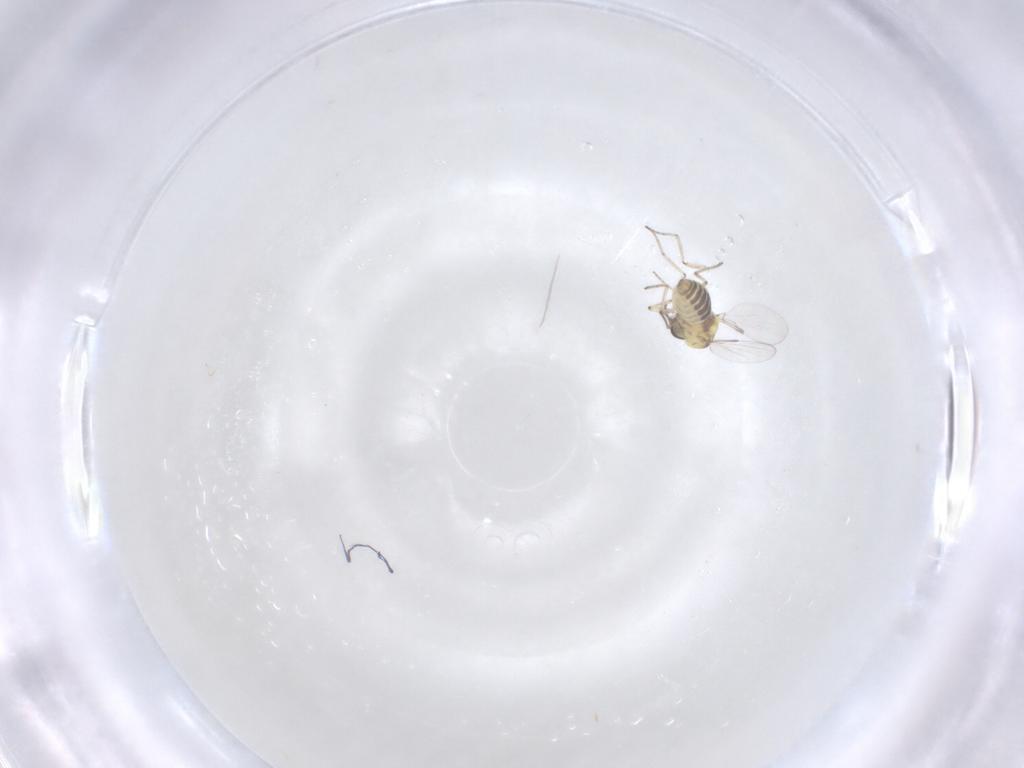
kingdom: Animalia
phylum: Arthropoda
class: Insecta
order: Diptera
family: Ceratopogonidae
